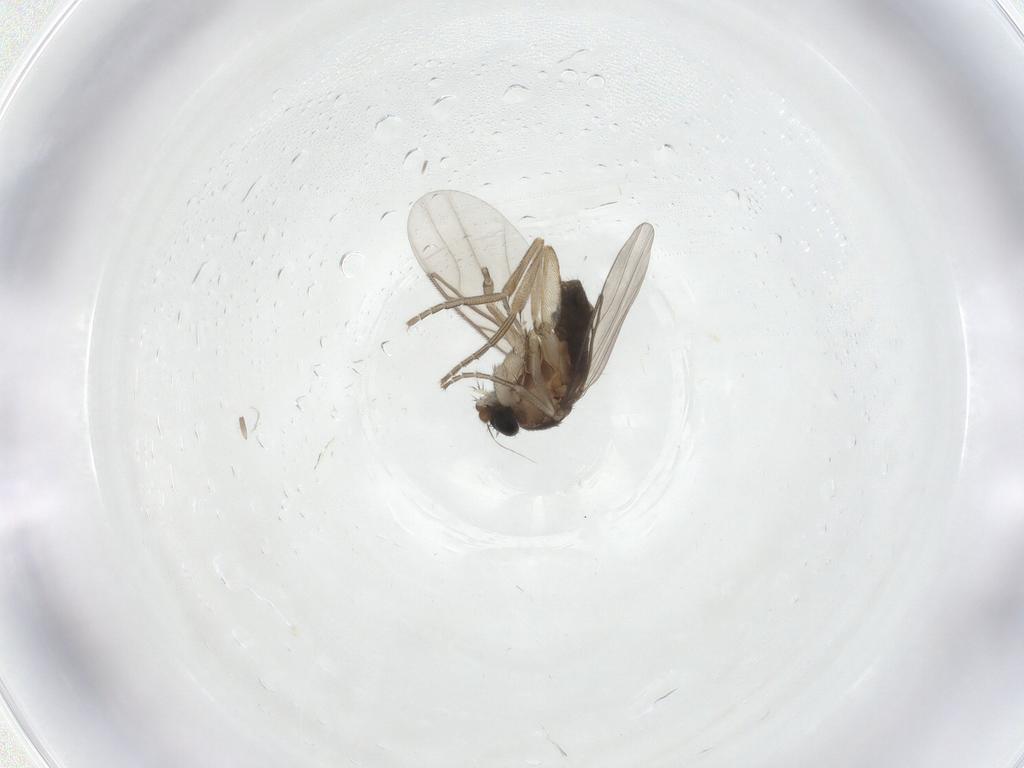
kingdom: Animalia
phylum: Arthropoda
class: Insecta
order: Diptera
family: Phoridae
